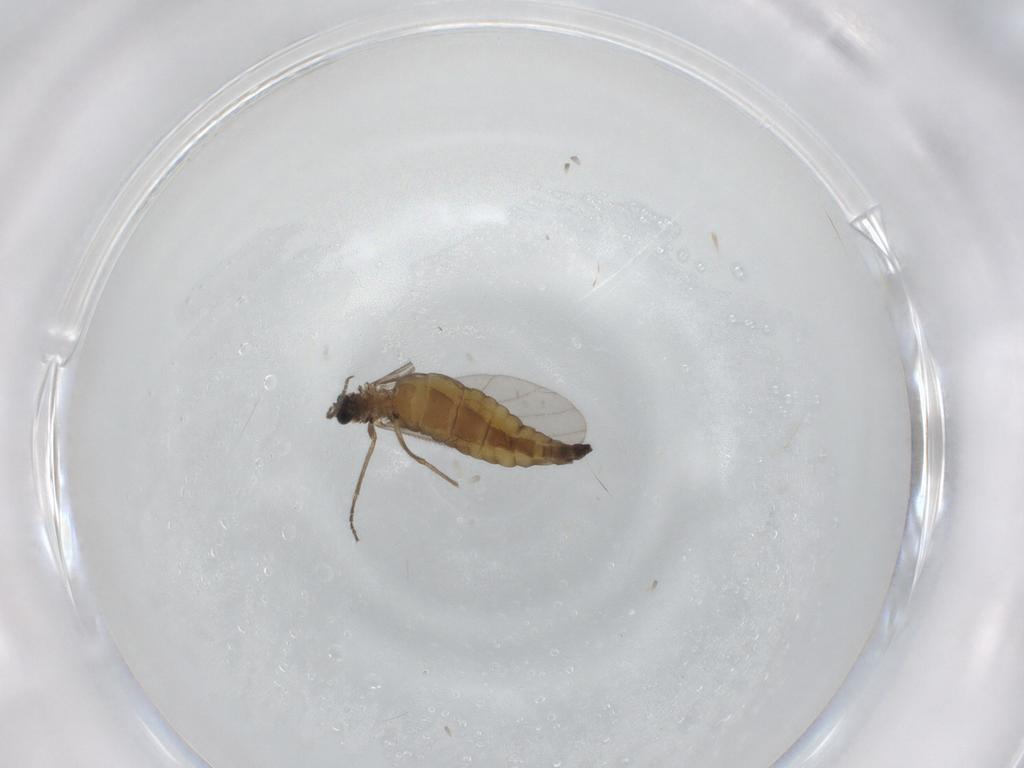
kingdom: Animalia
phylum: Arthropoda
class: Insecta
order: Diptera
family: Sciaridae
